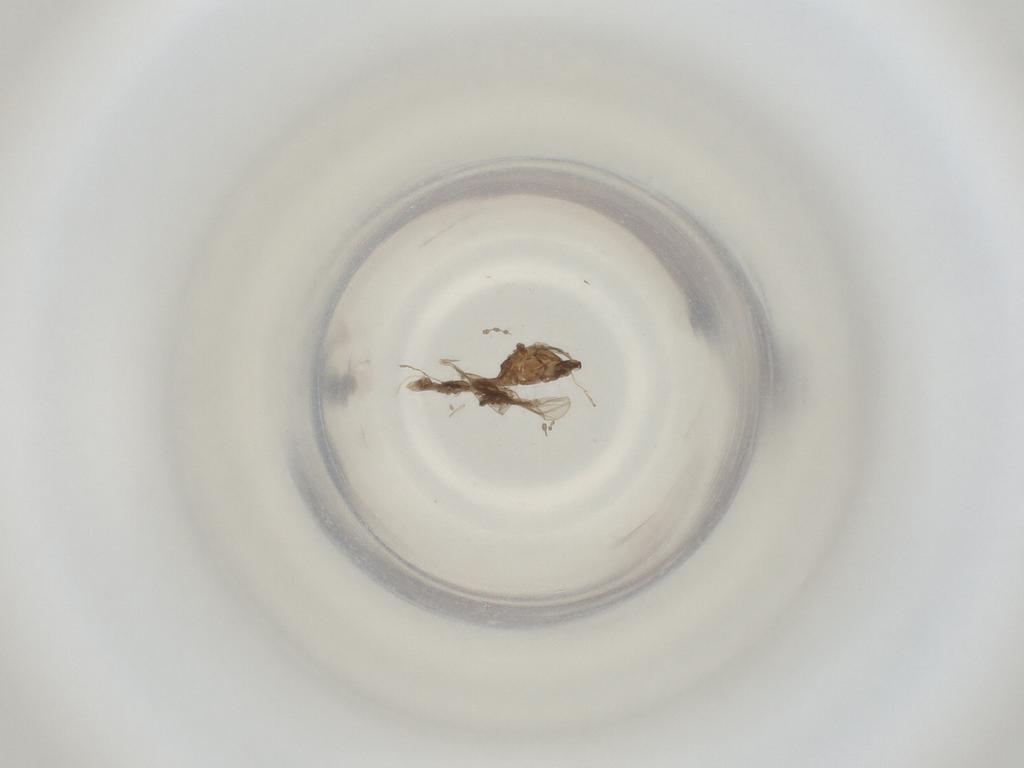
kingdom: Animalia
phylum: Arthropoda
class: Insecta
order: Diptera
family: Cecidomyiidae
